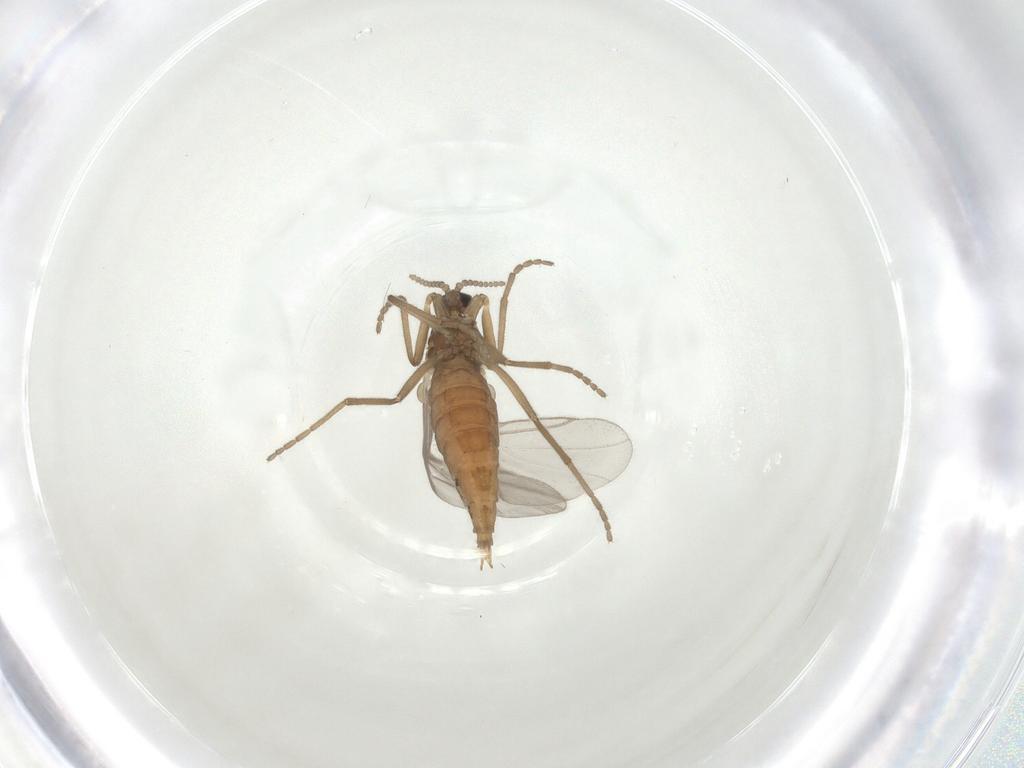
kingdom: Animalia
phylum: Arthropoda
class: Insecta
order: Diptera
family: Cecidomyiidae
